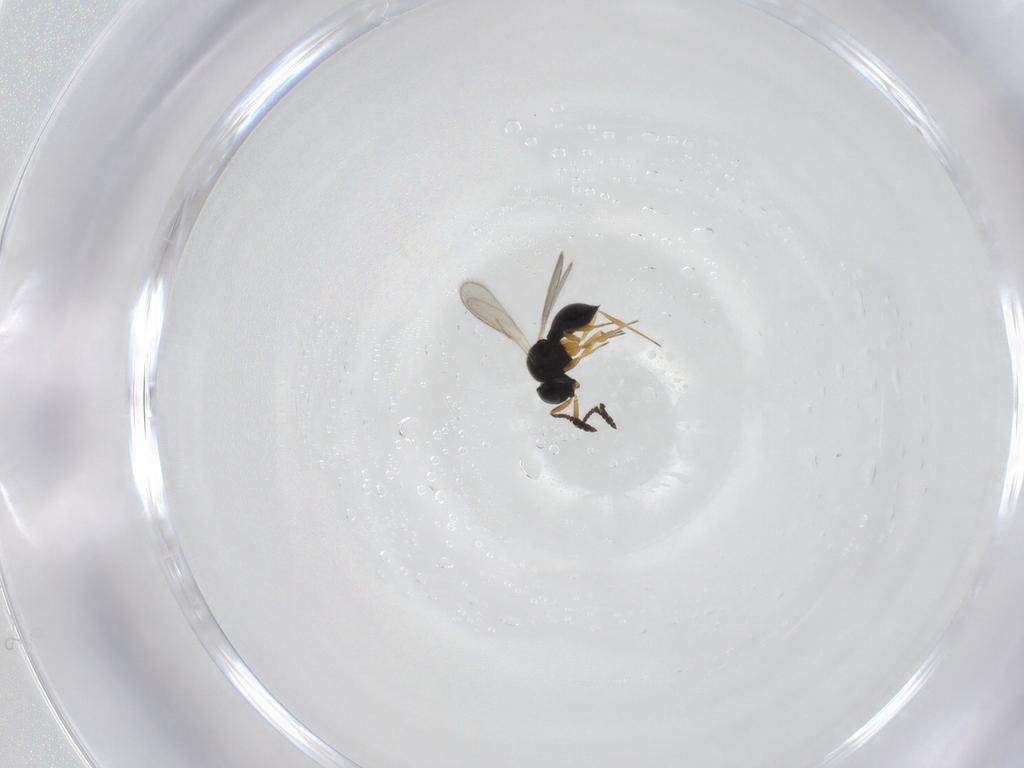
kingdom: Animalia
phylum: Arthropoda
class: Insecta
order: Hymenoptera
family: Scelionidae
